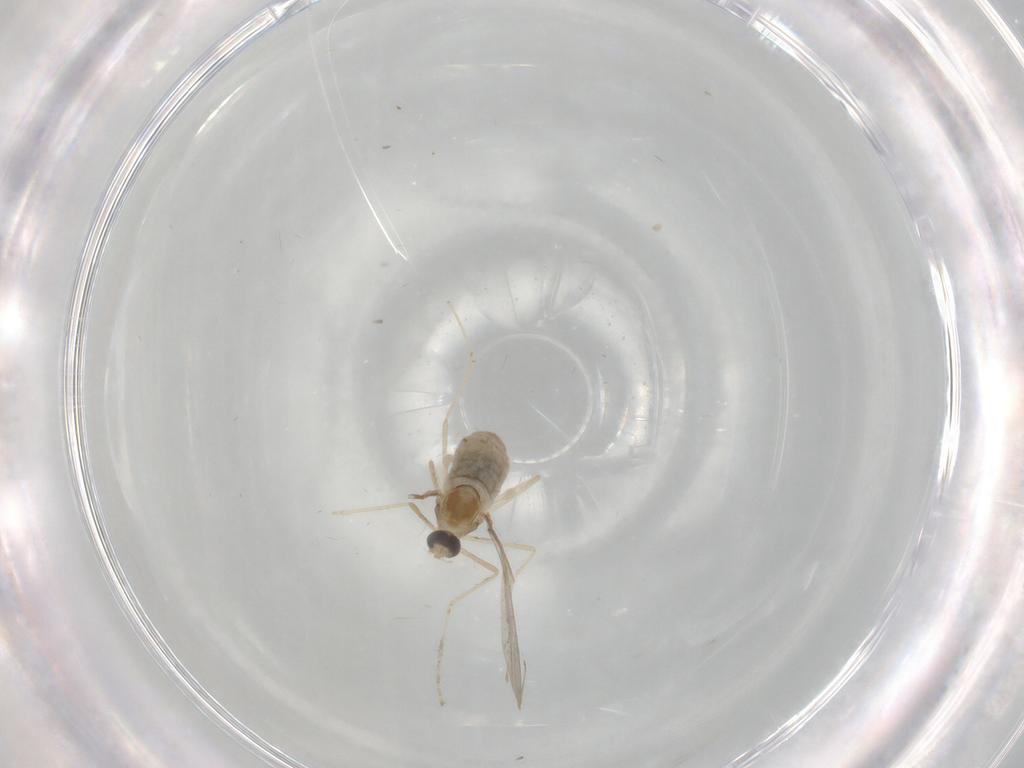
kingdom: Animalia
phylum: Arthropoda
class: Insecta
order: Diptera
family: Cecidomyiidae
